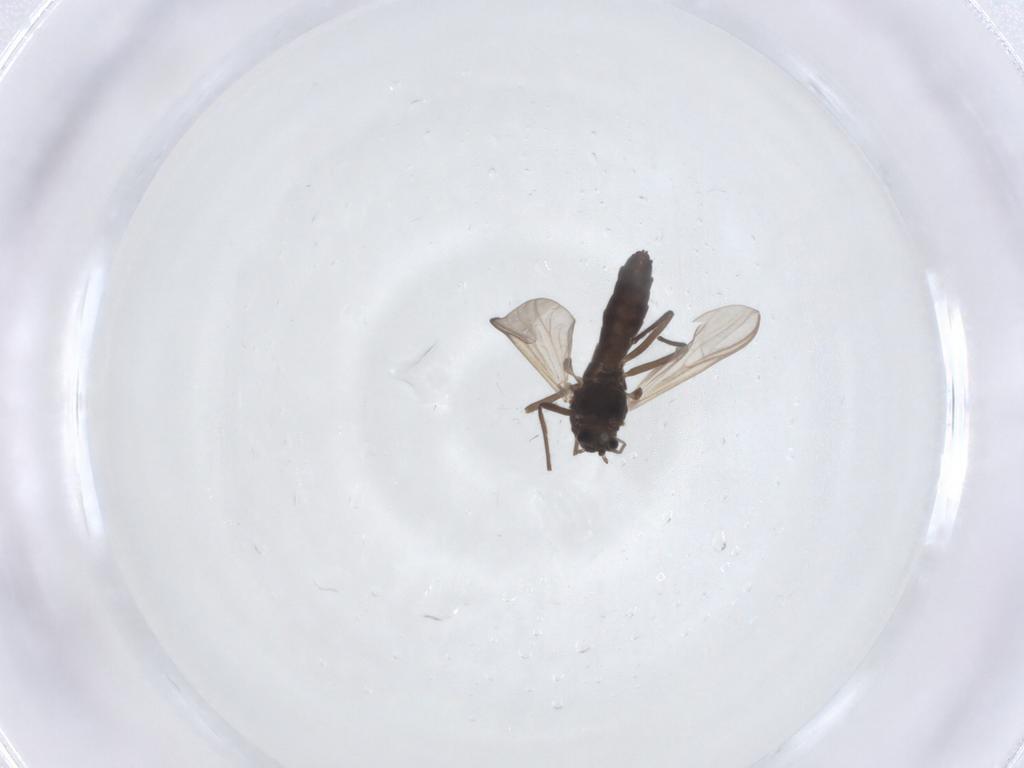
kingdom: Animalia
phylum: Arthropoda
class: Insecta
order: Diptera
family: Sciaridae
